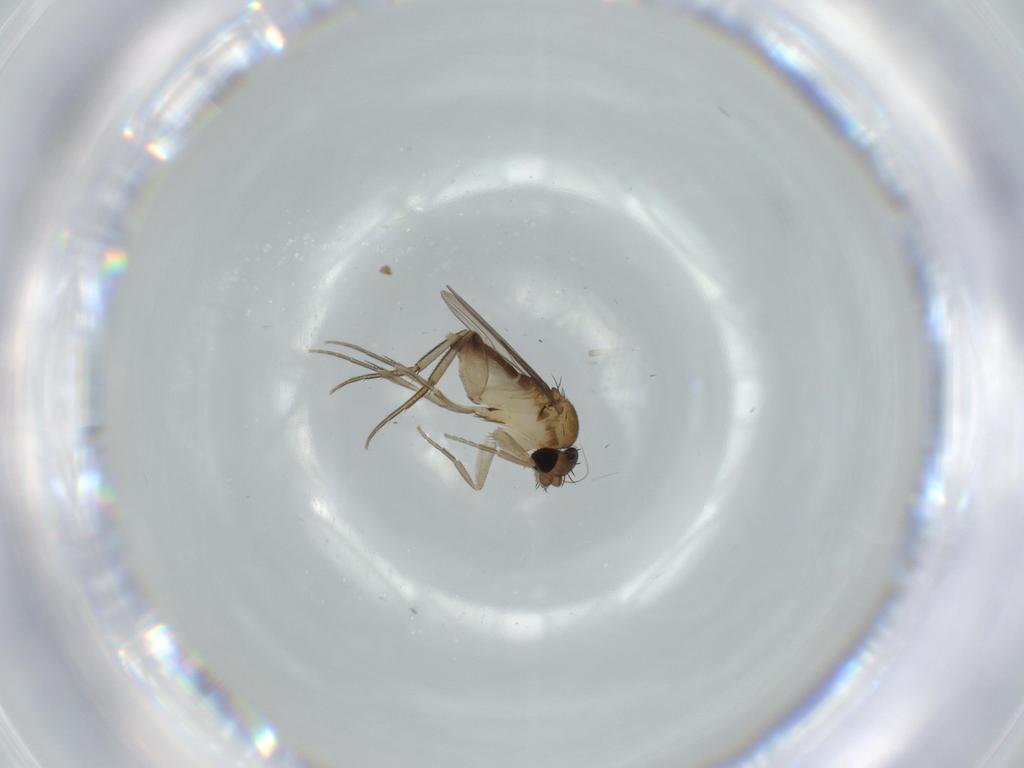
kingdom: Animalia
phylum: Arthropoda
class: Insecta
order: Diptera
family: Phoridae
